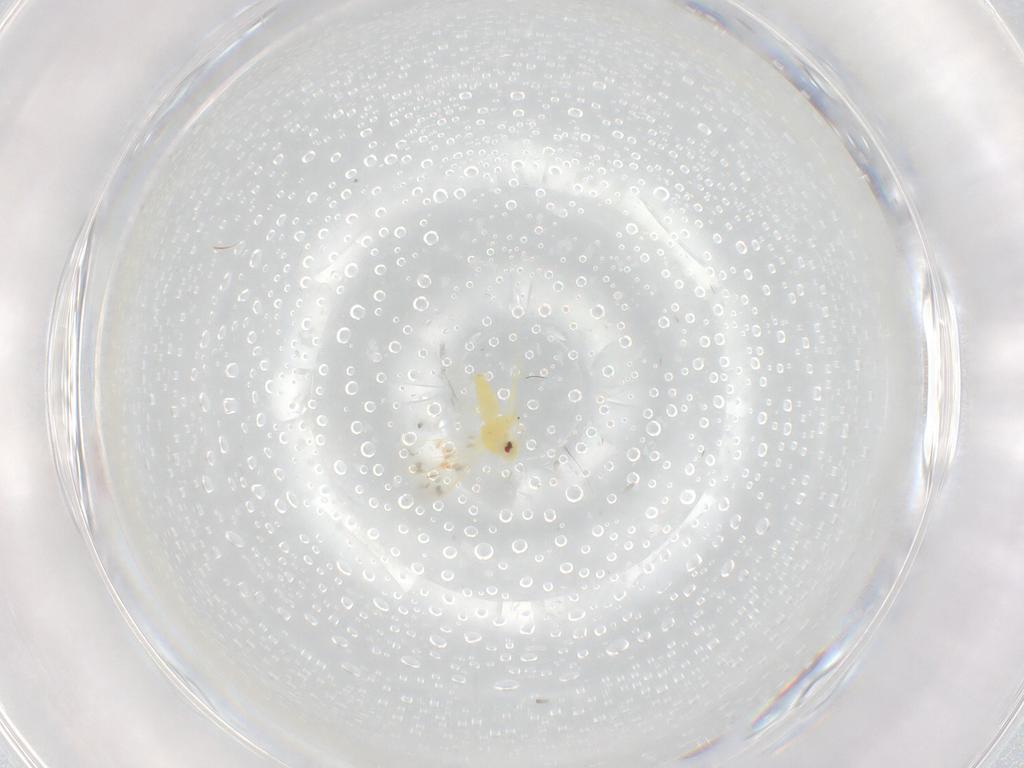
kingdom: Animalia
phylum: Arthropoda
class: Insecta
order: Hemiptera
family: Aleyrodidae
